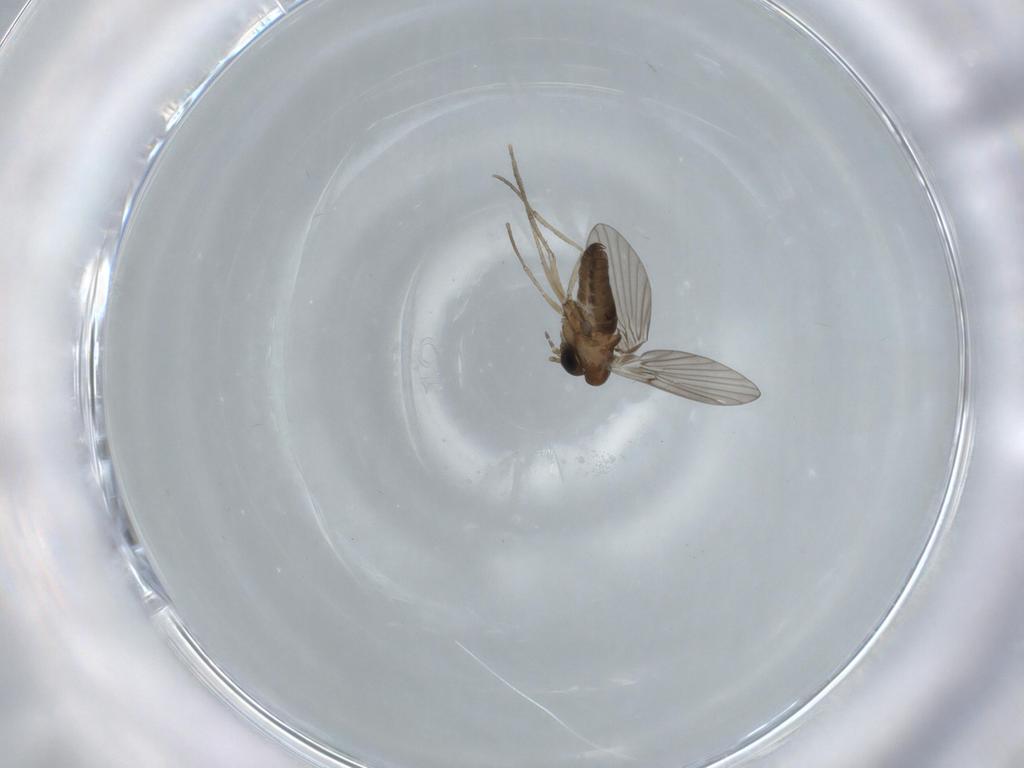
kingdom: Animalia
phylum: Arthropoda
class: Insecta
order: Diptera
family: Psychodidae
